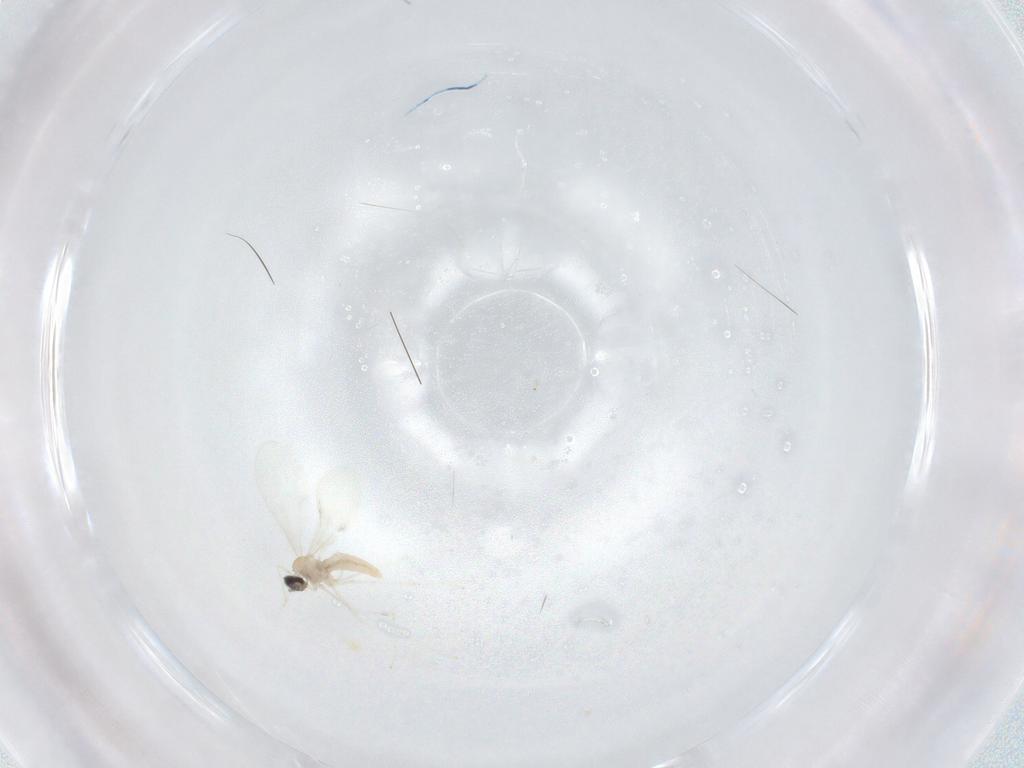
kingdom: Animalia
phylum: Arthropoda
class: Insecta
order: Diptera
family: Cecidomyiidae
